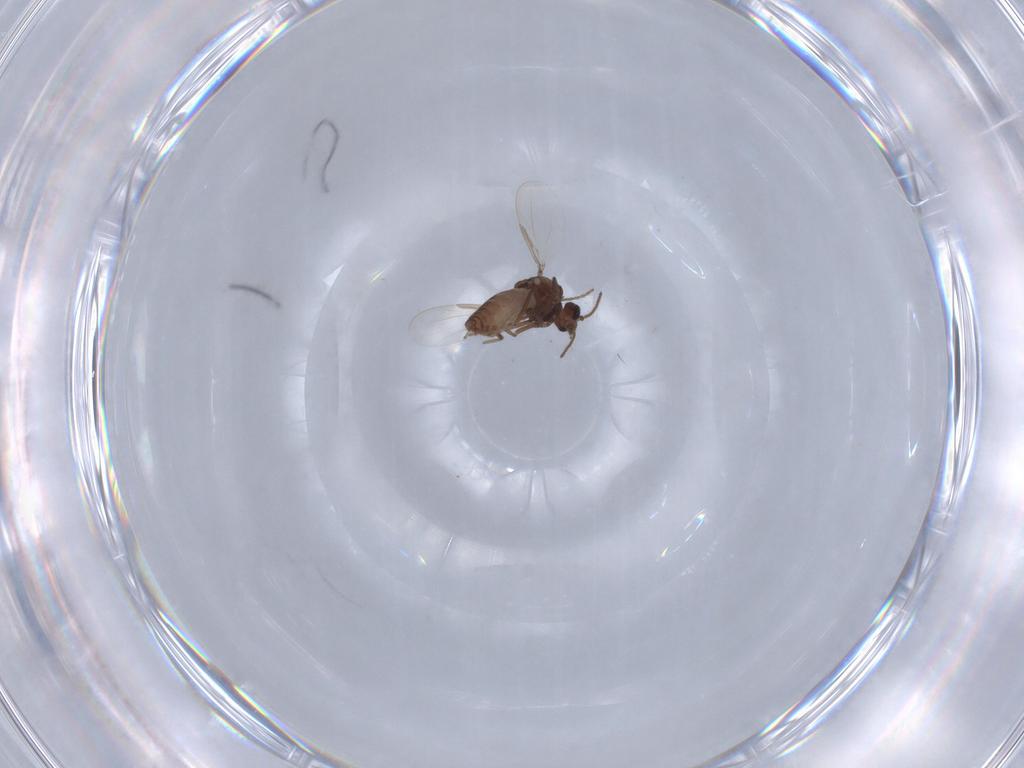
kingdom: Animalia
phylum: Arthropoda
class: Insecta
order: Diptera
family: Ceratopogonidae
